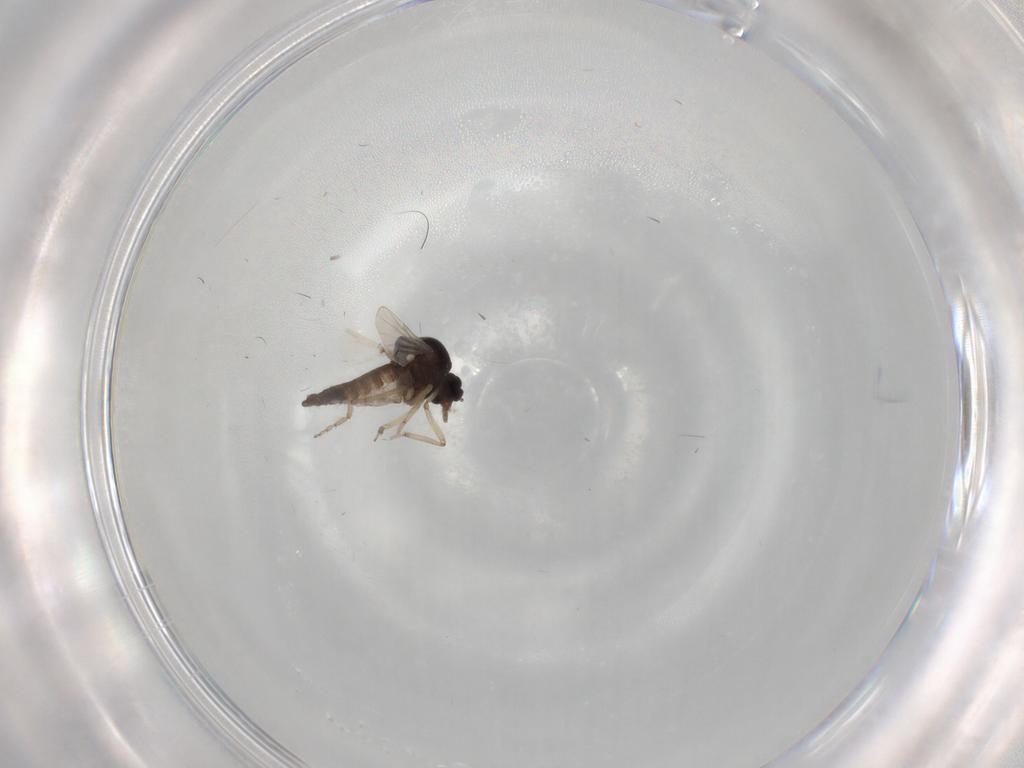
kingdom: Animalia
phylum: Arthropoda
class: Insecta
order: Diptera
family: Ceratopogonidae
